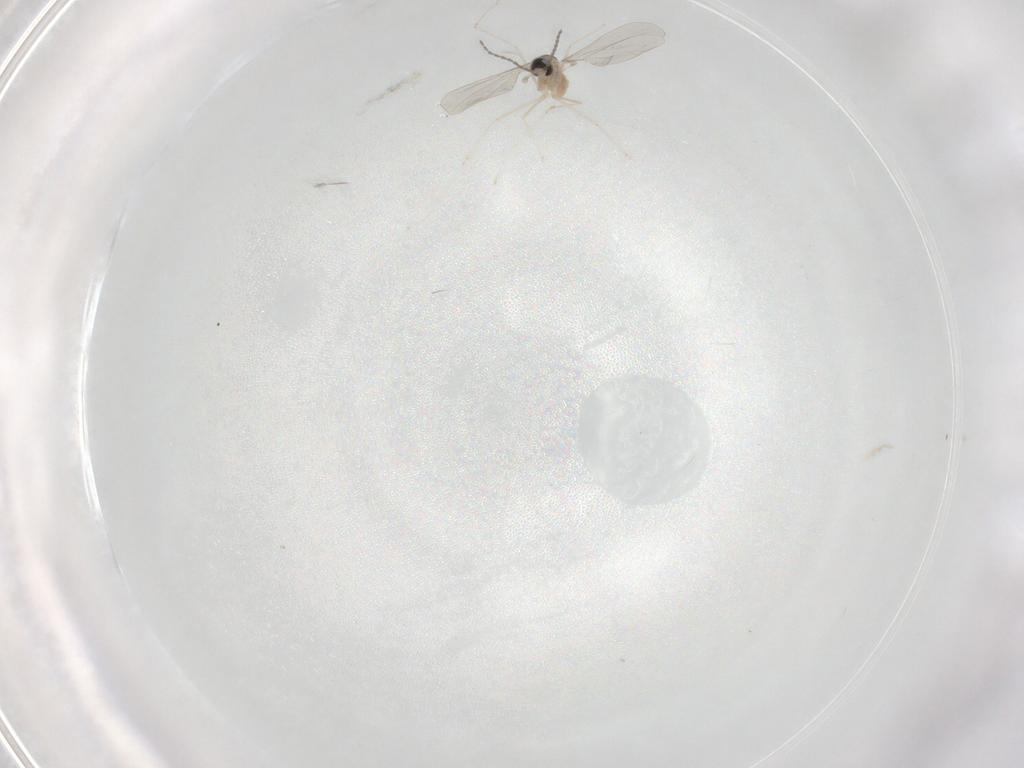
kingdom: Animalia
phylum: Arthropoda
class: Insecta
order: Diptera
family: Cecidomyiidae
